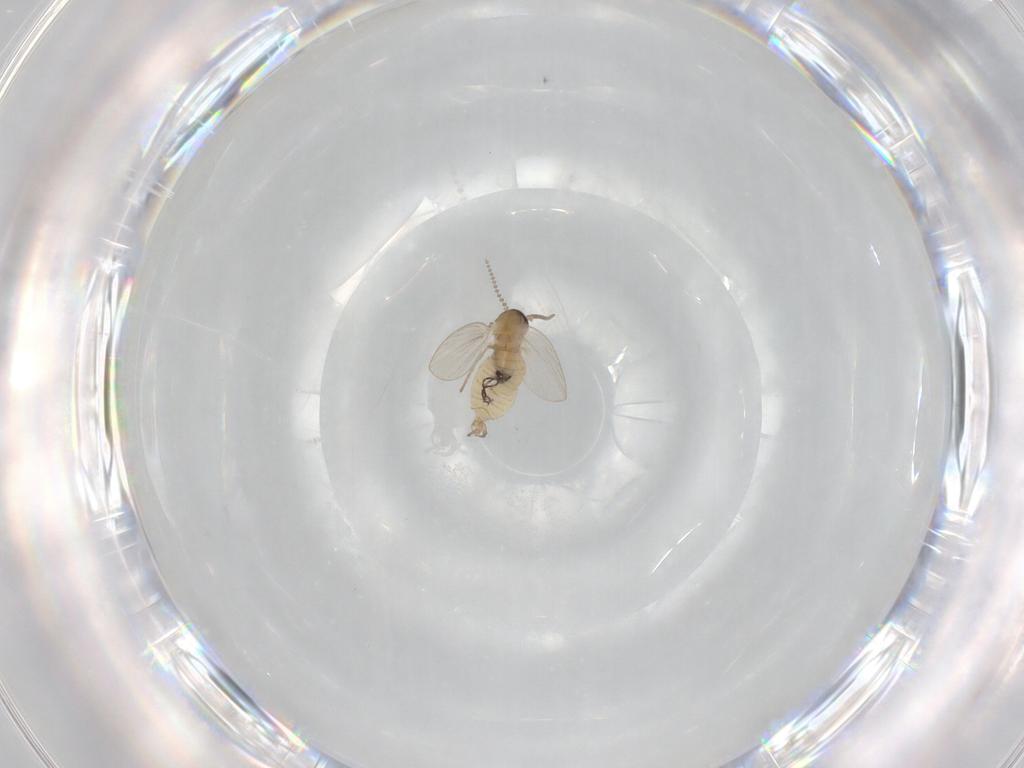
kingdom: Animalia
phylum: Arthropoda
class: Insecta
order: Diptera
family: Psychodidae
